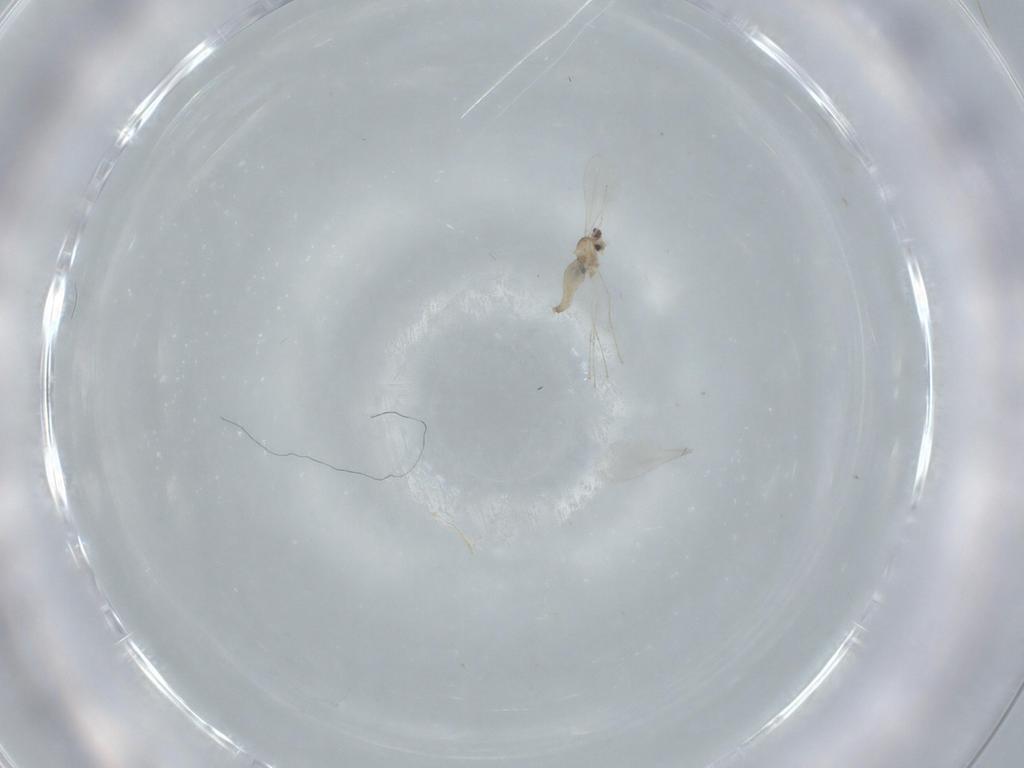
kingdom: Animalia
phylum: Arthropoda
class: Insecta
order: Diptera
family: Cecidomyiidae
